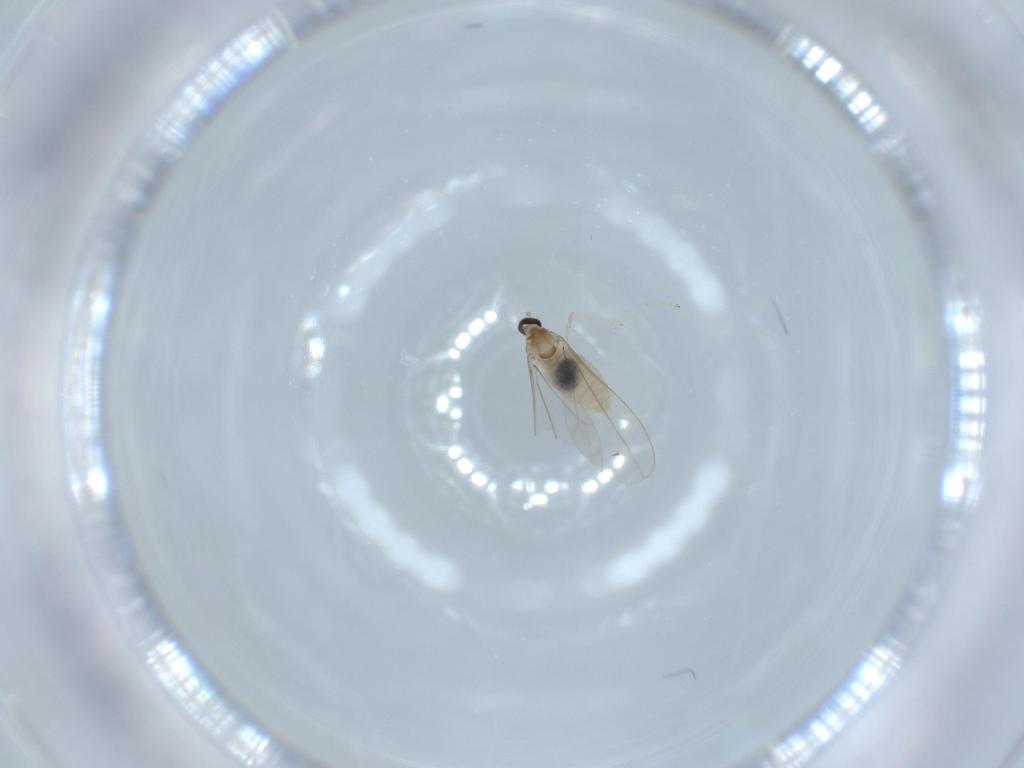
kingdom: Animalia
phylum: Arthropoda
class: Insecta
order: Diptera
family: Cecidomyiidae
